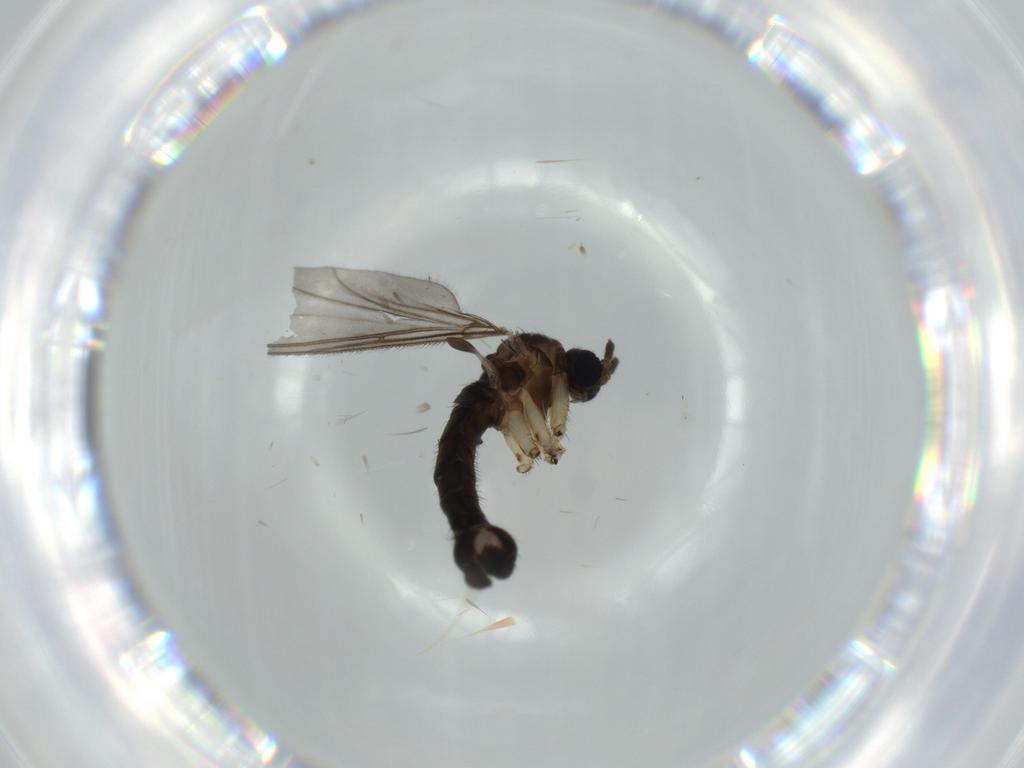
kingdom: Animalia
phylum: Arthropoda
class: Insecta
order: Diptera
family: Sciaridae
